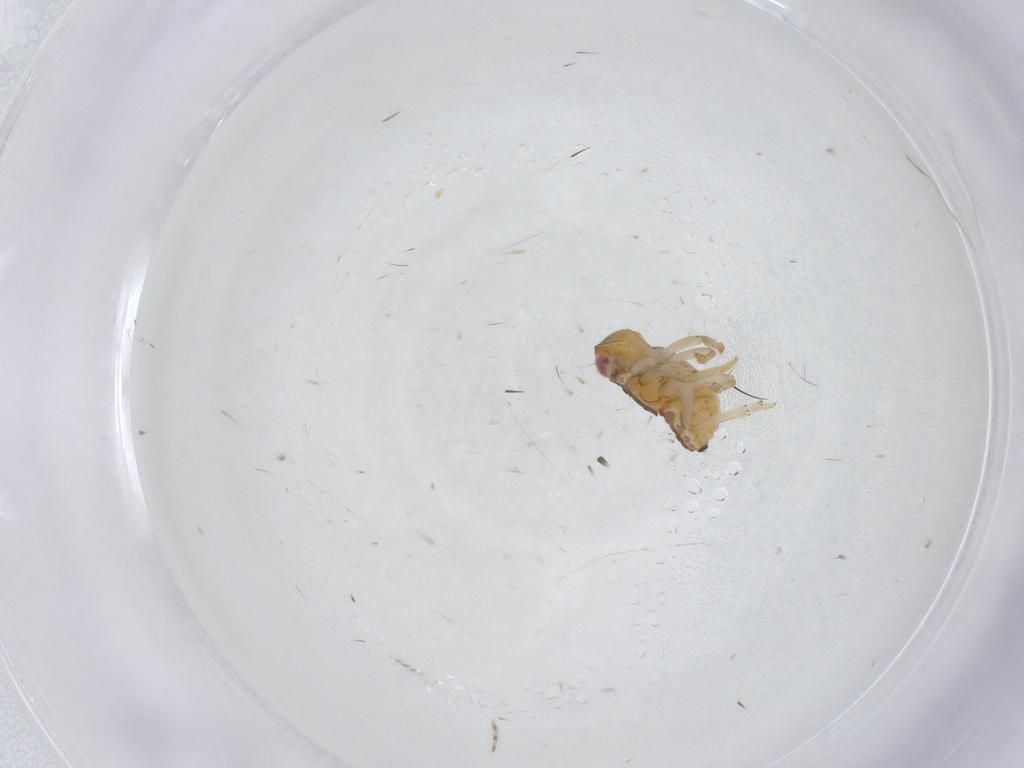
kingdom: Animalia
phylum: Arthropoda
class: Insecta
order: Hemiptera
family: Issidae
